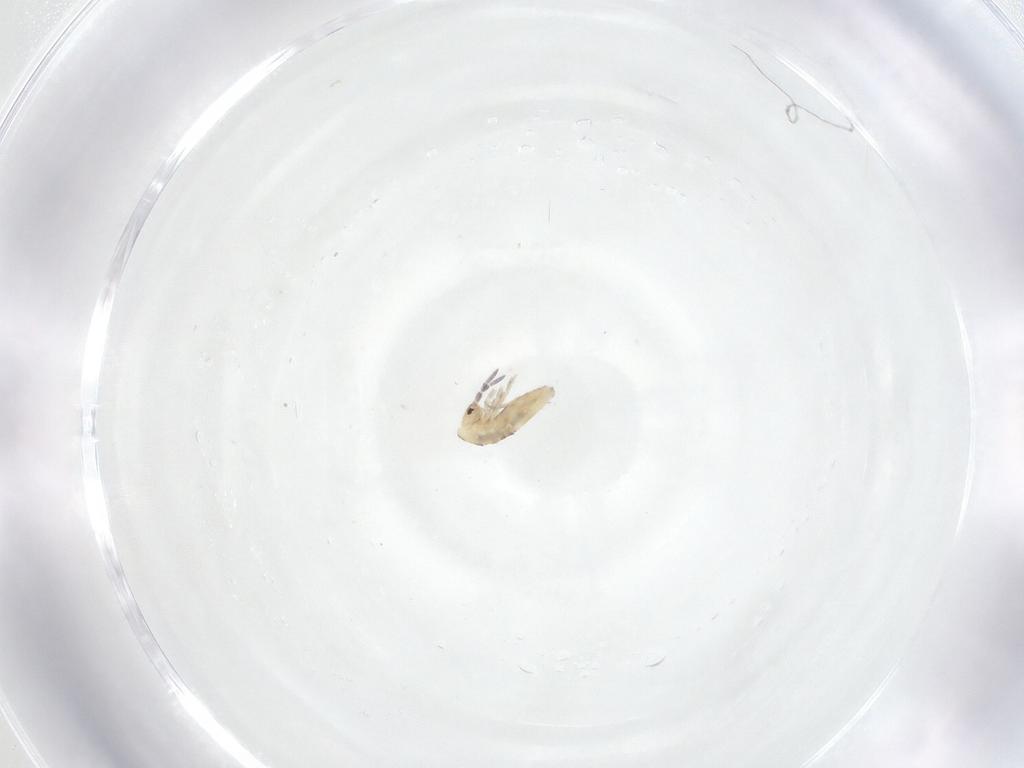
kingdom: Animalia
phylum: Arthropoda
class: Collembola
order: Entomobryomorpha
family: Entomobryidae
